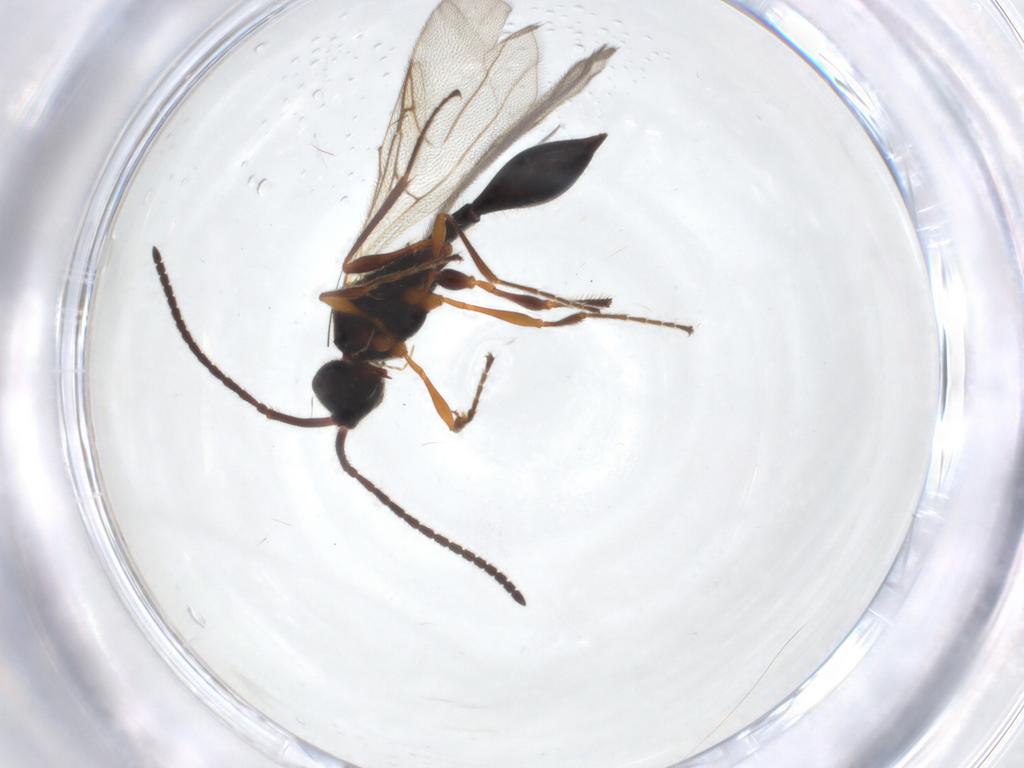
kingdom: Animalia
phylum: Arthropoda
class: Insecta
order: Hymenoptera
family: Diapriidae
